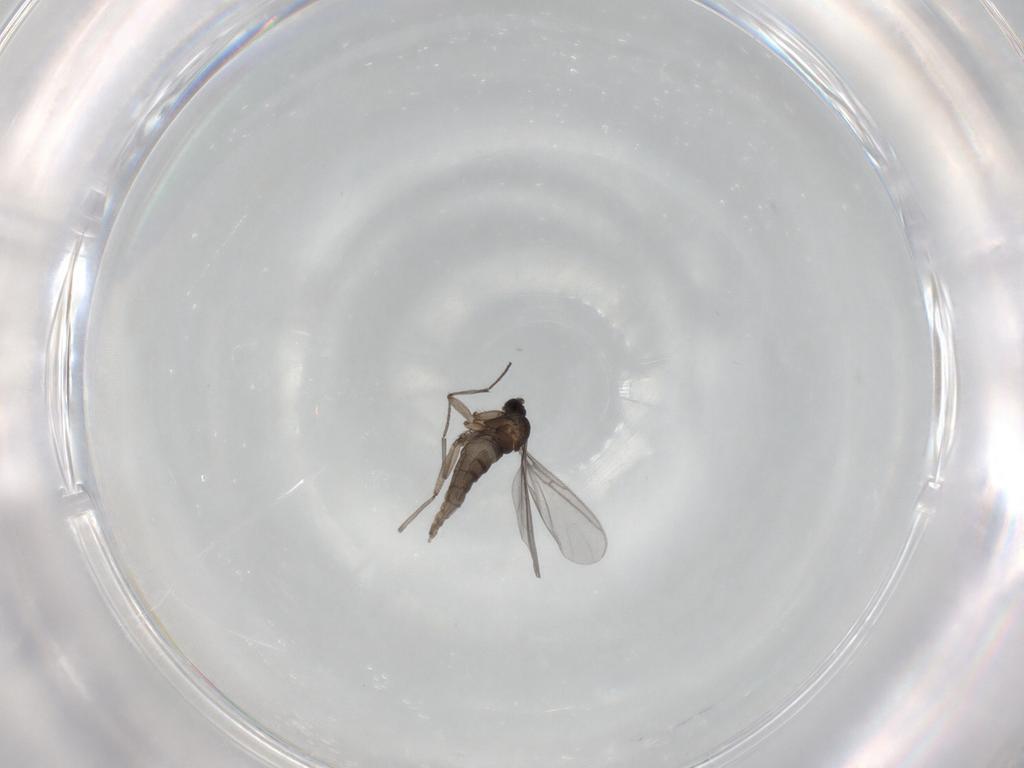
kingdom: Animalia
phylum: Arthropoda
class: Insecta
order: Diptera
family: Sciaridae
